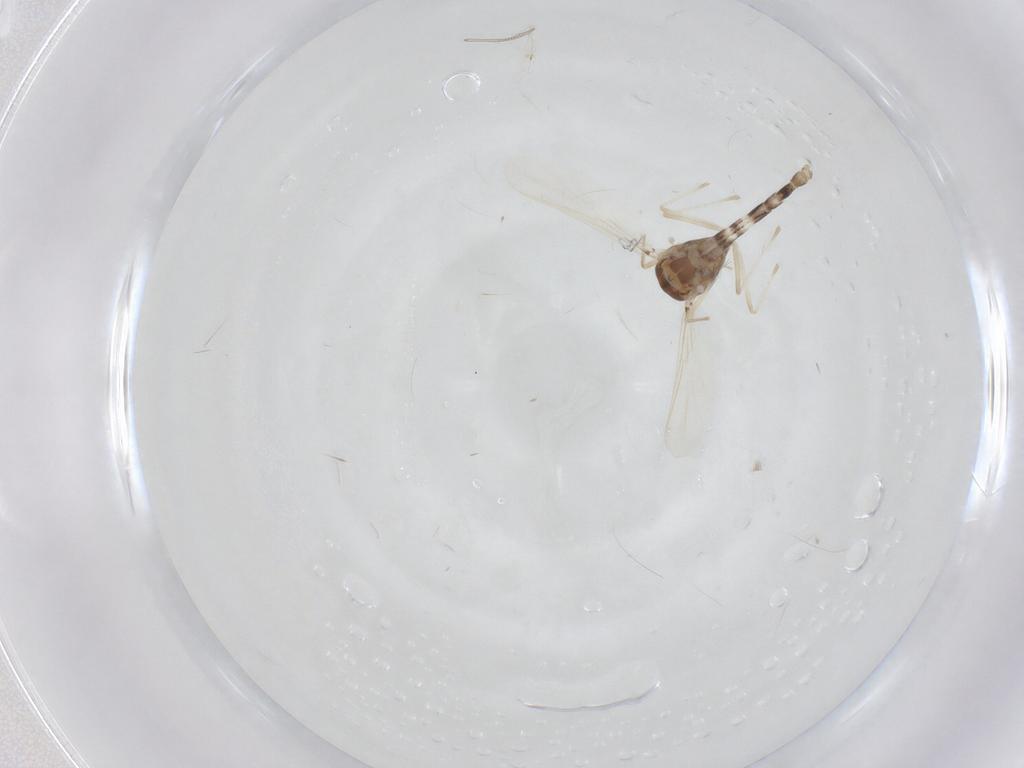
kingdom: Animalia
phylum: Arthropoda
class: Insecta
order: Diptera
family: Chironomidae
